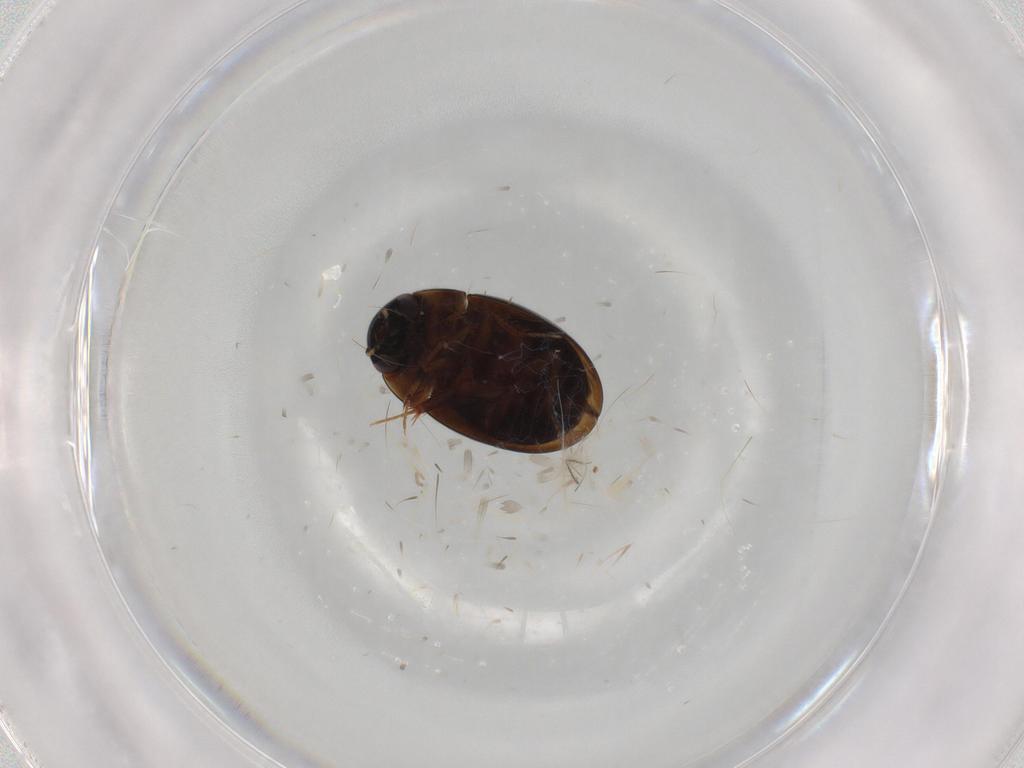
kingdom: Animalia
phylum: Arthropoda
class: Insecta
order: Coleoptera
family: Hydrophilidae
